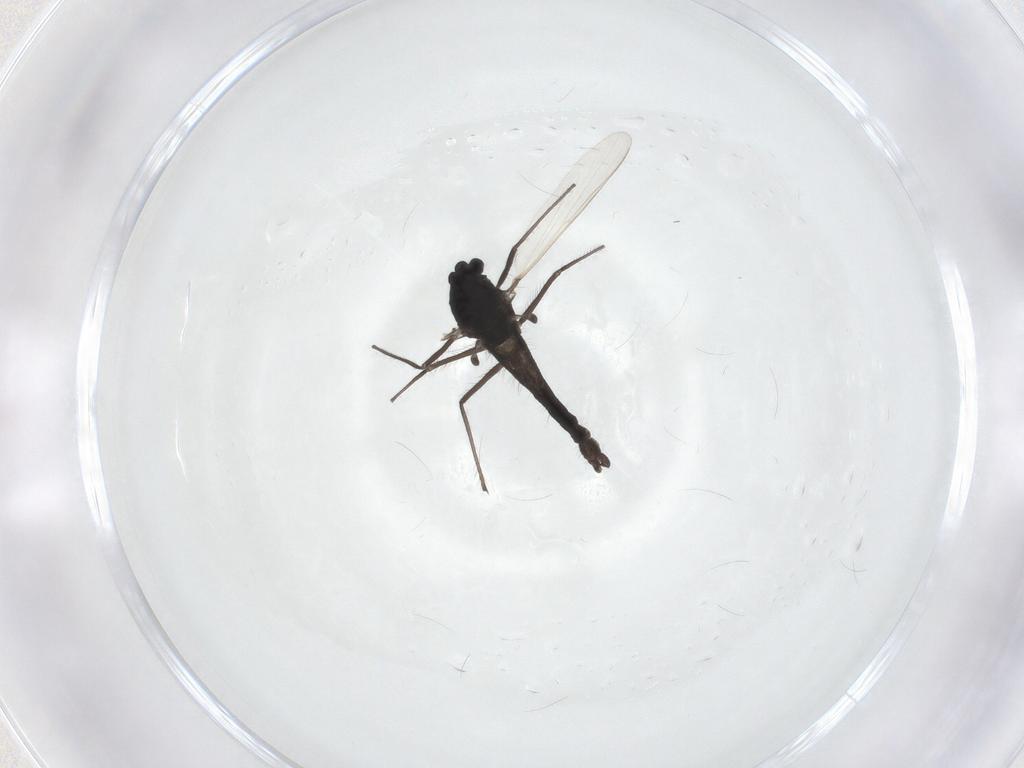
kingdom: Animalia
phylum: Arthropoda
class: Insecta
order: Diptera
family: Chironomidae
